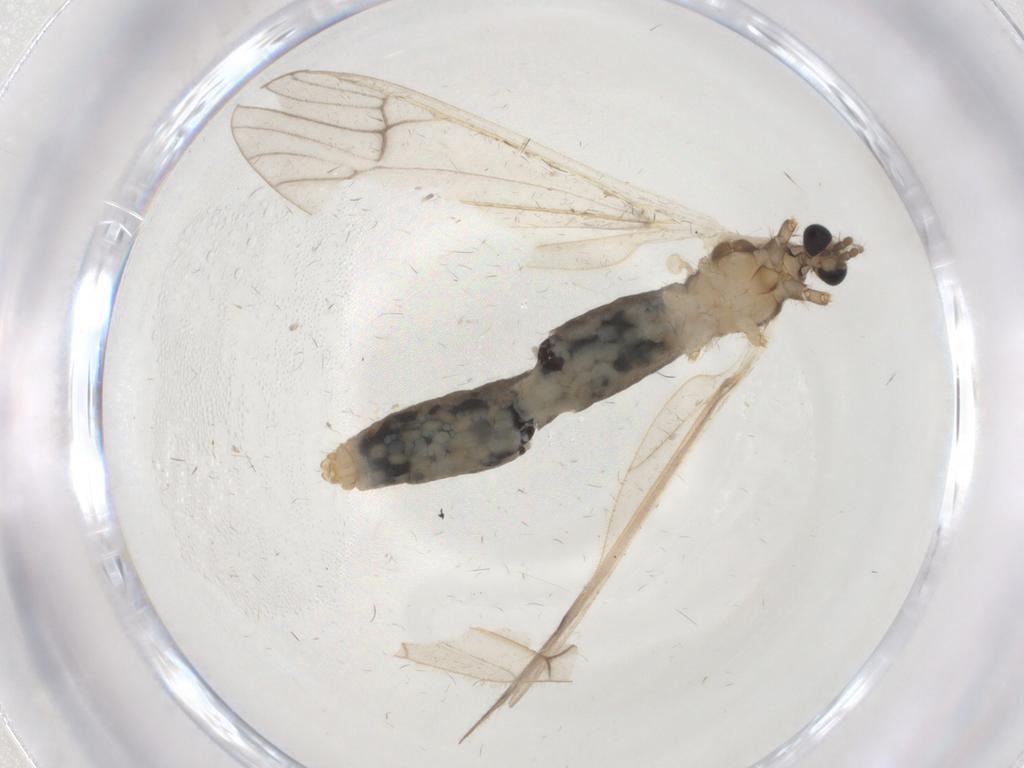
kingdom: Animalia
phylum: Arthropoda
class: Insecta
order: Diptera
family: Limoniidae
